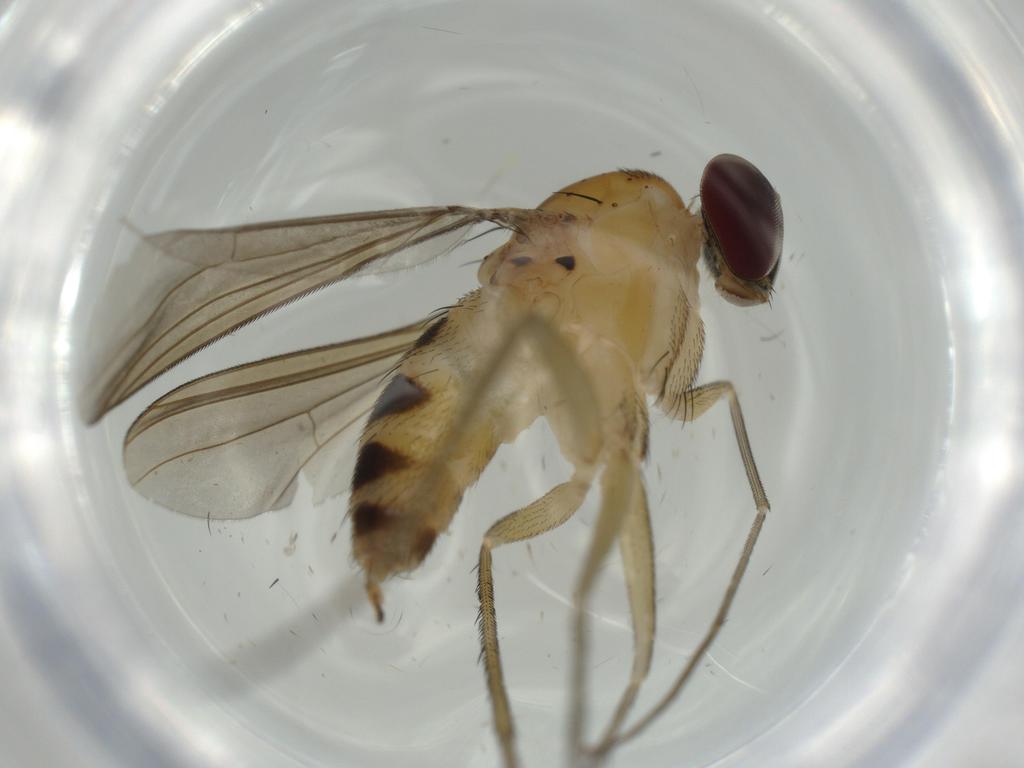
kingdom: Animalia
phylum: Arthropoda
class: Insecta
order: Diptera
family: Dolichopodidae
